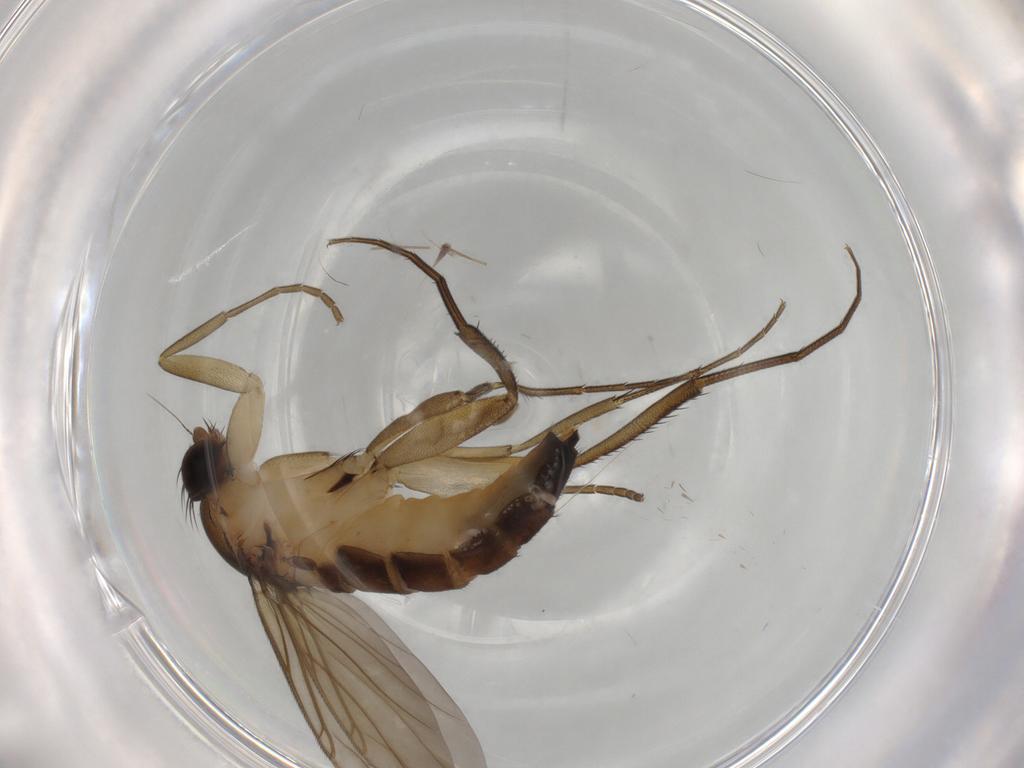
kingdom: Animalia
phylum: Arthropoda
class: Insecta
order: Diptera
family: Phoridae
